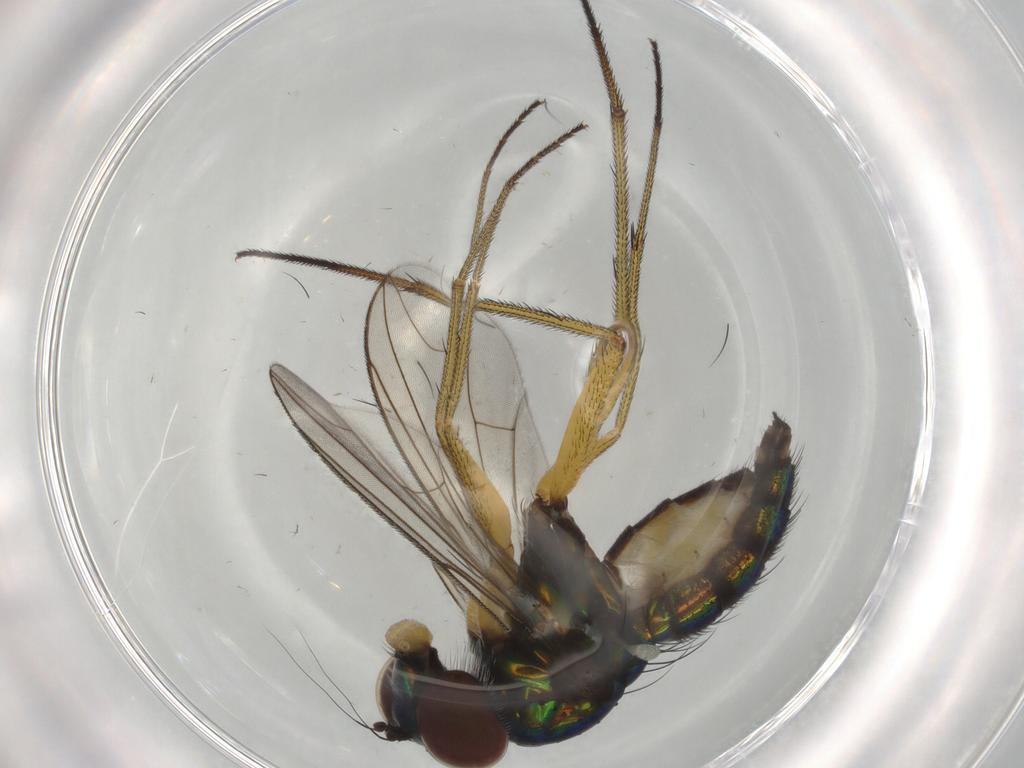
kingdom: Animalia
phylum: Arthropoda
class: Insecta
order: Diptera
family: Dolichopodidae
